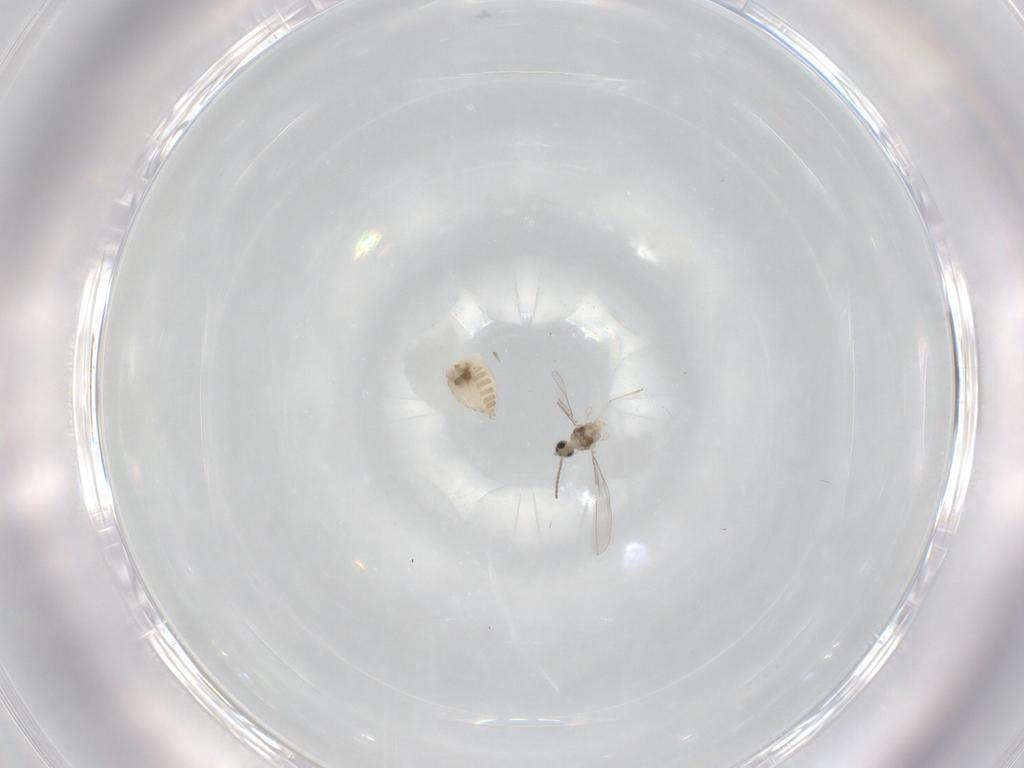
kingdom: Animalia
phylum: Arthropoda
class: Insecta
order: Diptera
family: Cecidomyiidae
